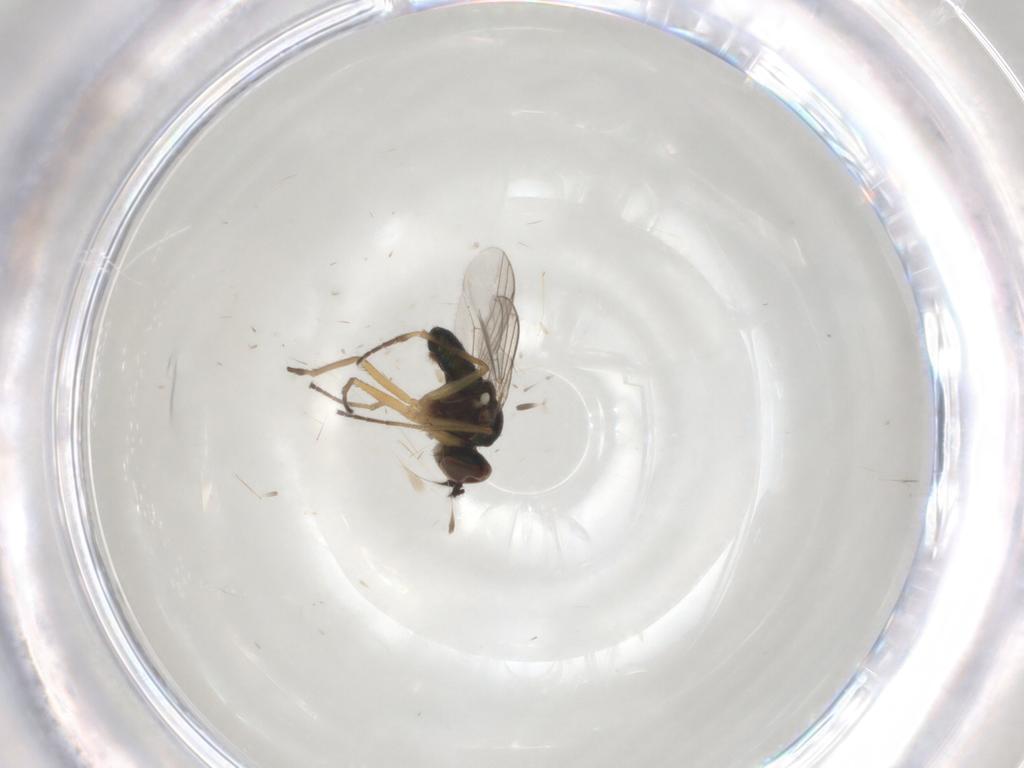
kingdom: Animalia
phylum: Arthropoda
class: Insecta
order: Diptera
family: Dolichopodidae
